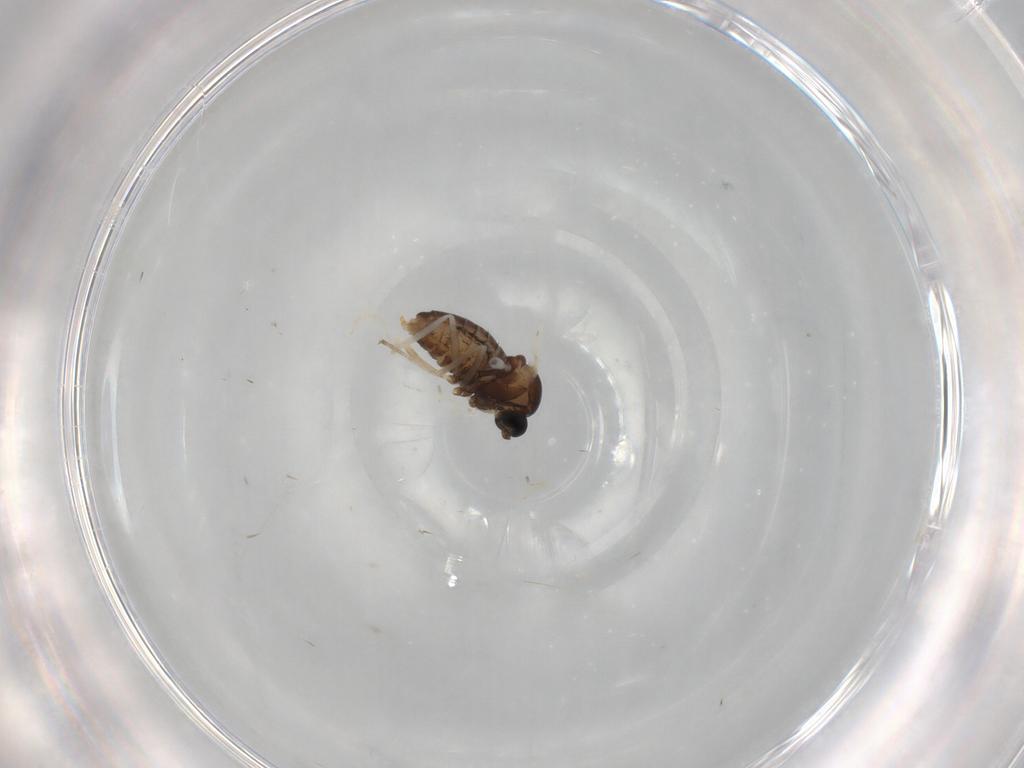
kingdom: Animalia
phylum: Arthropoda
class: Insecta
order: Diptera
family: Cecidomyiidae
